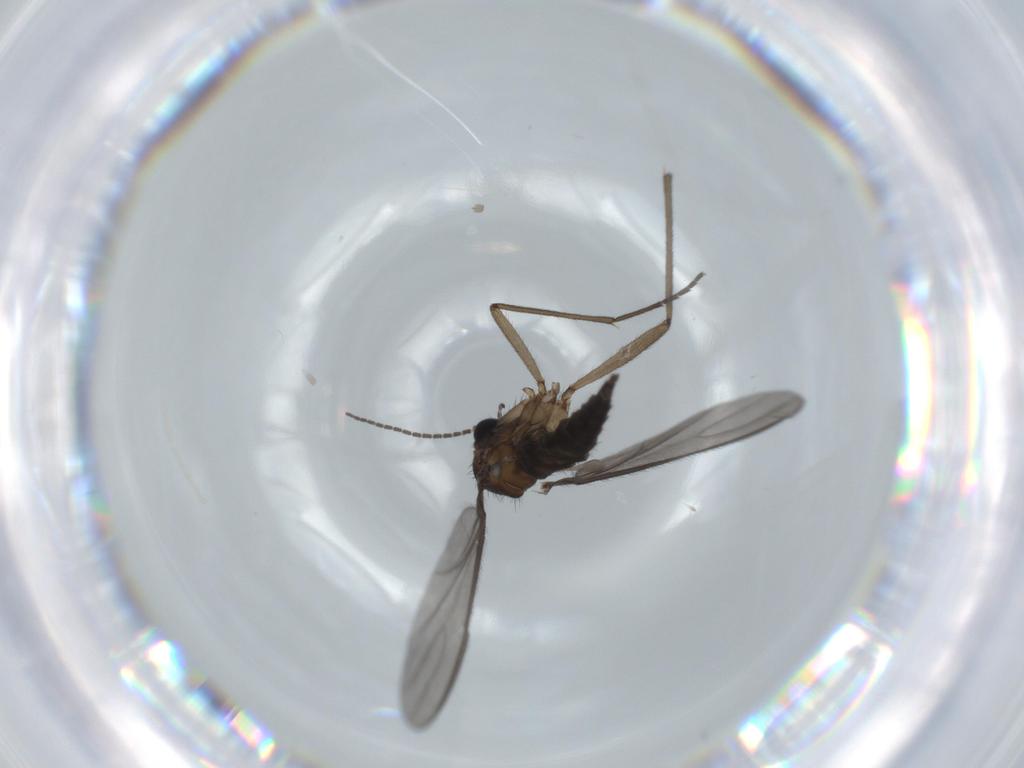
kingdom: Animalia
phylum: Arthropoda
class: Insecta
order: Diptera
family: Sciaridae
